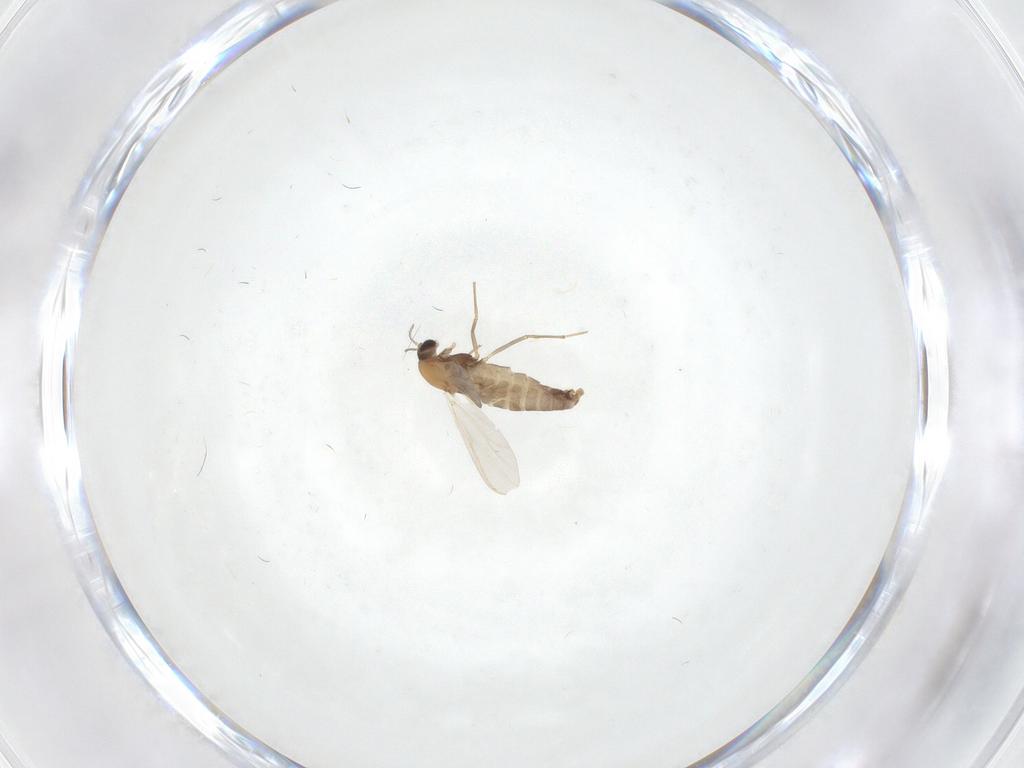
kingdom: Animalia
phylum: Arthropoda
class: Insecta
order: Diptera
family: Chironomidae
